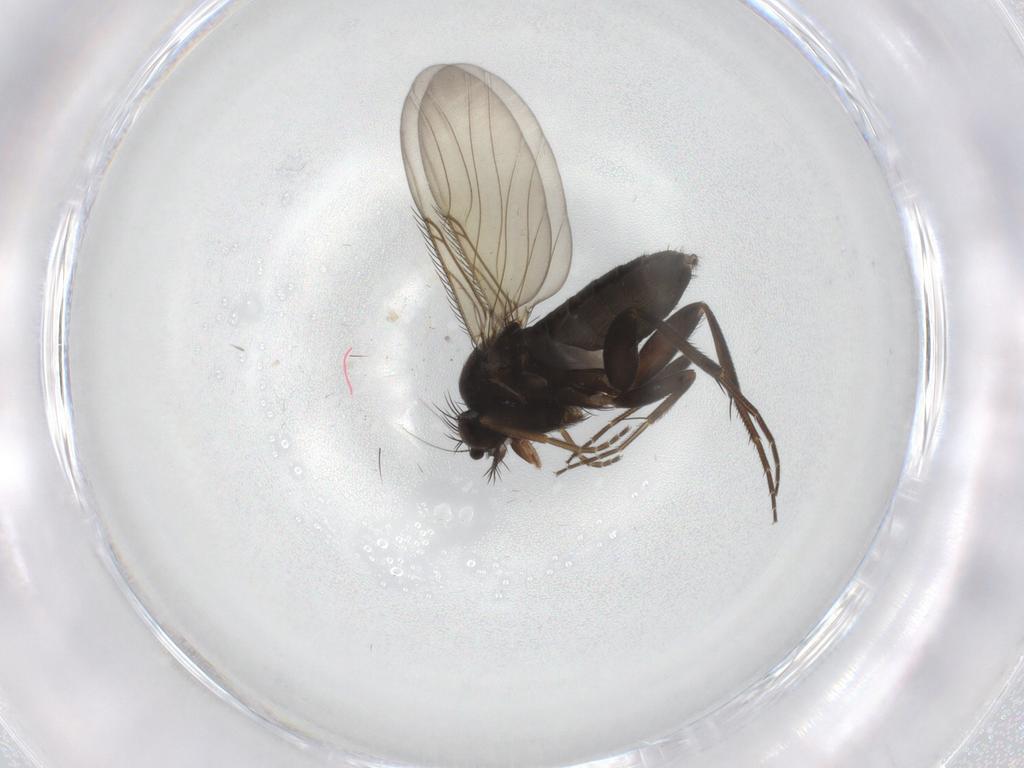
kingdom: Animalia
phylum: Arthropoda
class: Insecta
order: Diptera
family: Phoridae
